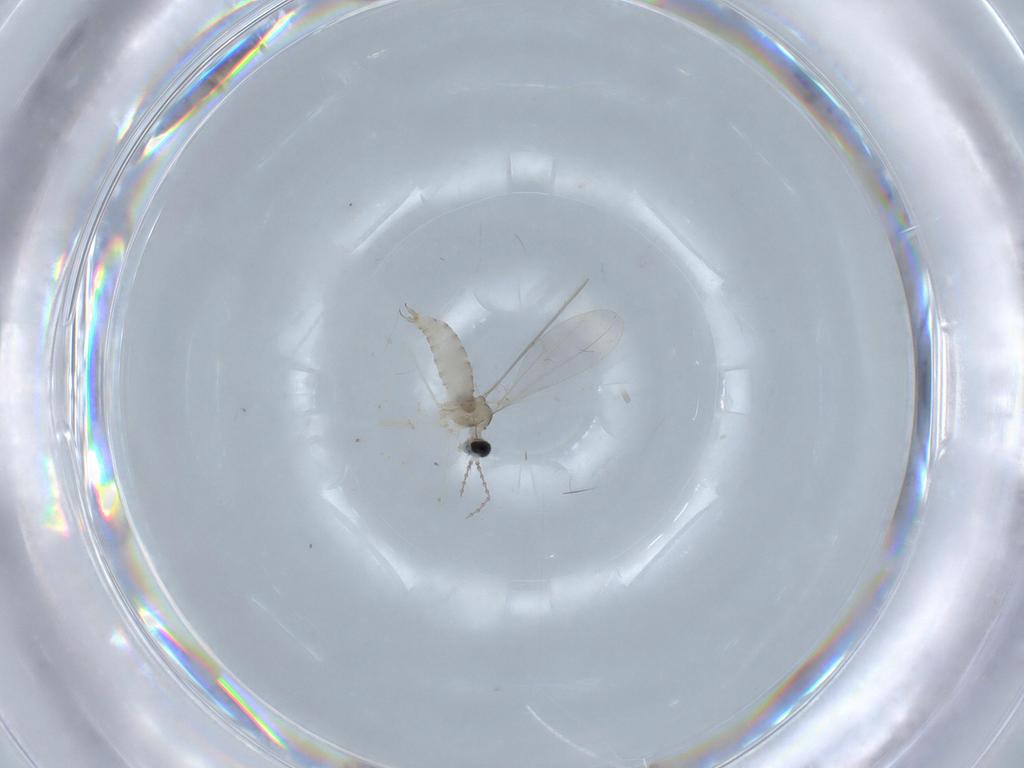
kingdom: Animalia
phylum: Arthropoda
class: Insecta
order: Diptera
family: Cecidomyiidae
